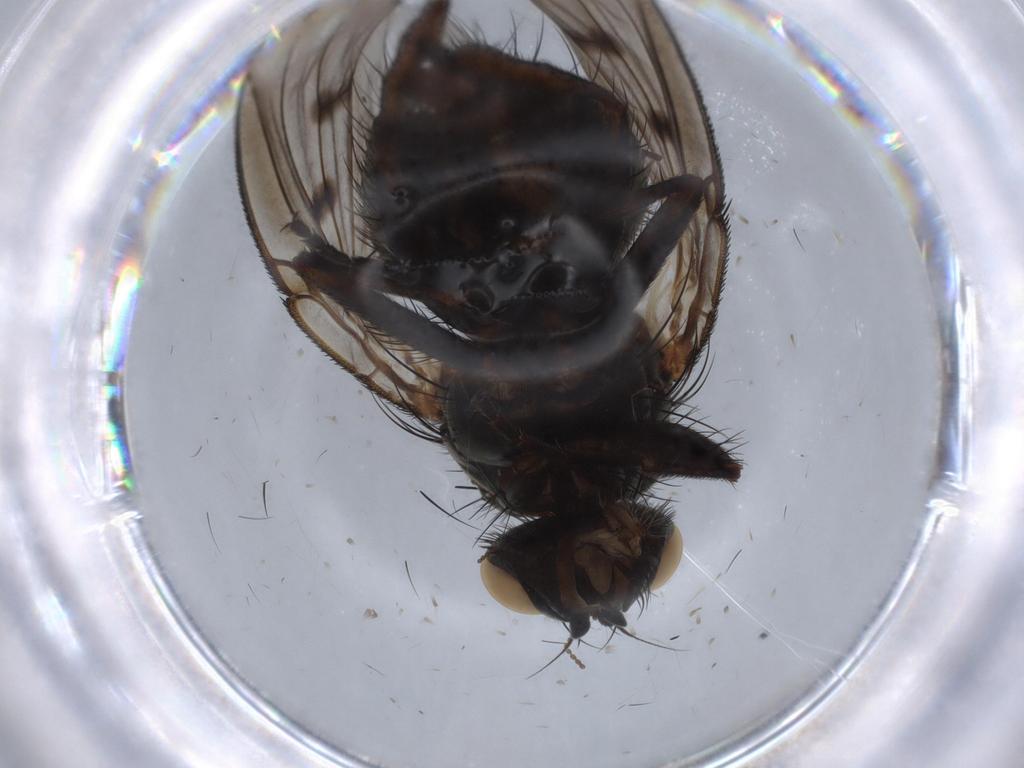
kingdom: Animalia
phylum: Arthropoda
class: Insecta
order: Diptera
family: Muscidae
